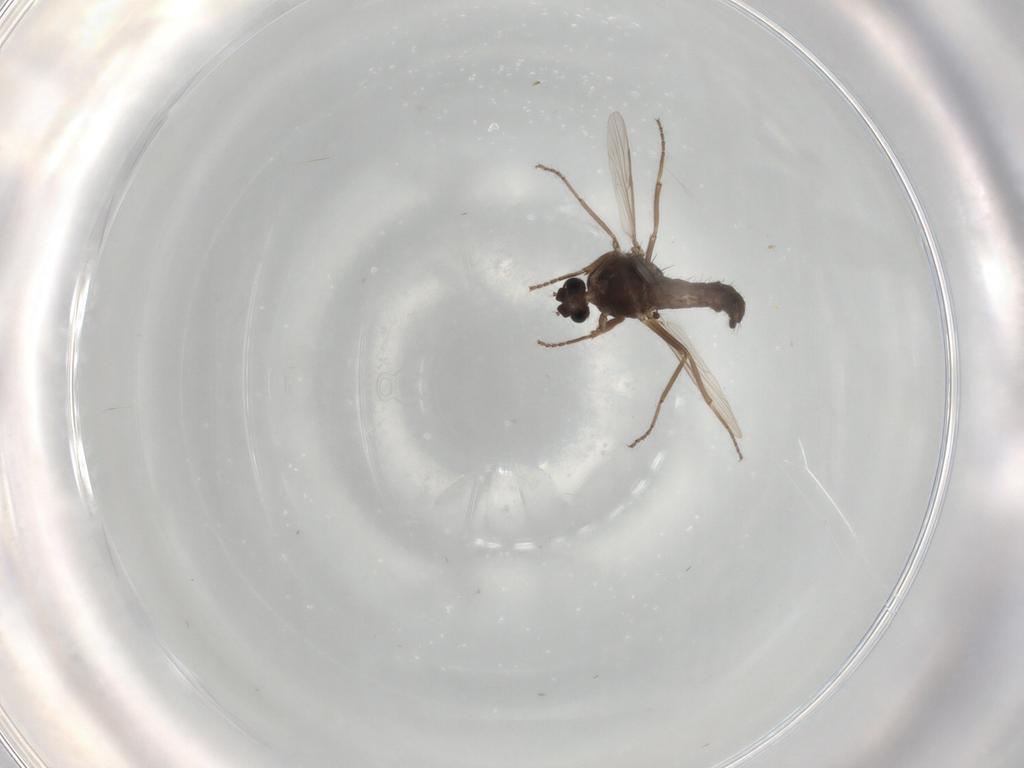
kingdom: Animalia
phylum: Arthropoda
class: Insecta
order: Diptera
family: Ceratopogonidae
